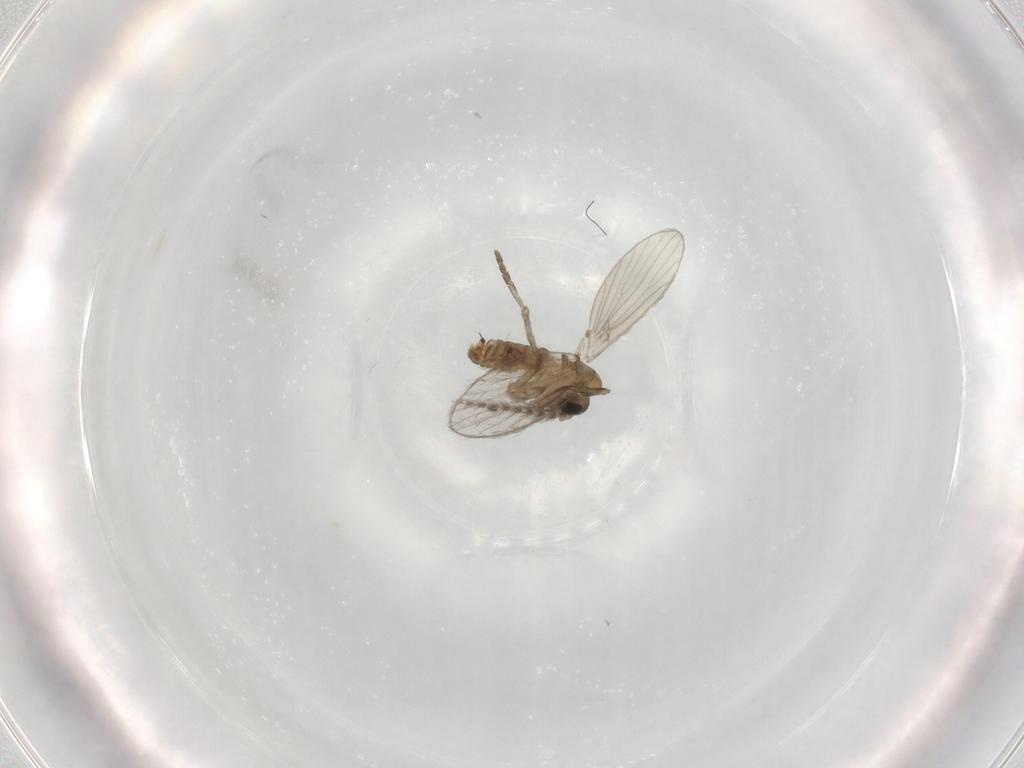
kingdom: Animalia
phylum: Arthropoda
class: Insecta
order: Diptera
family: Psychodidae
